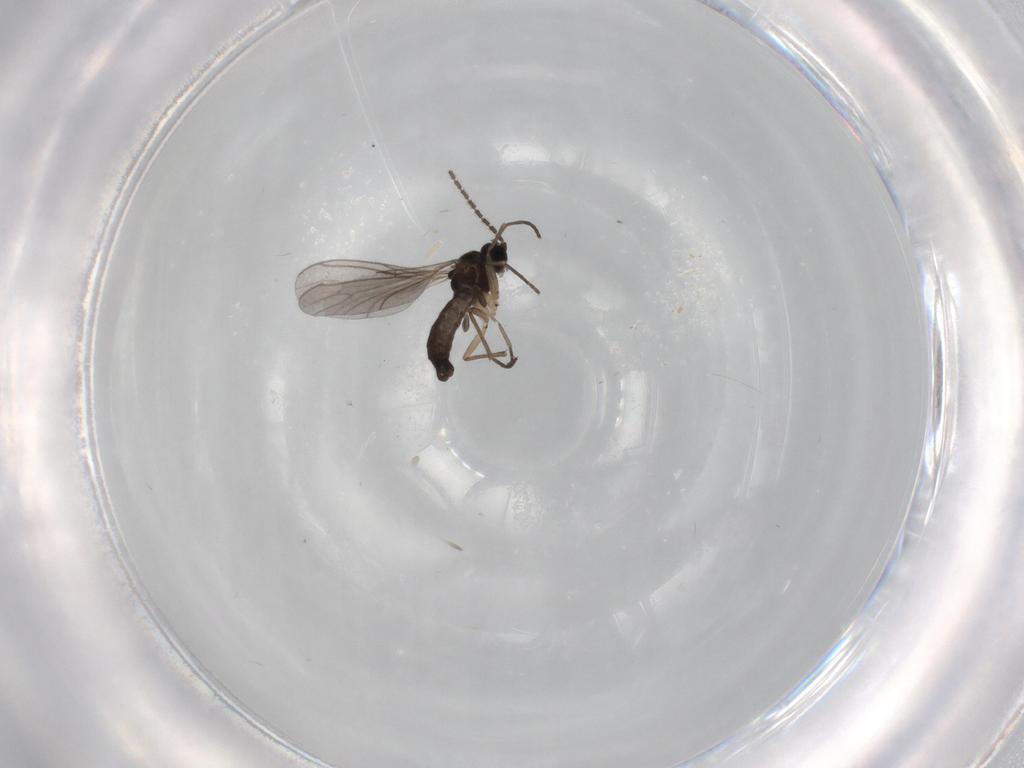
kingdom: Animalia
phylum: Arthropoda
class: Insecta
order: Diptera
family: Sciaridae
